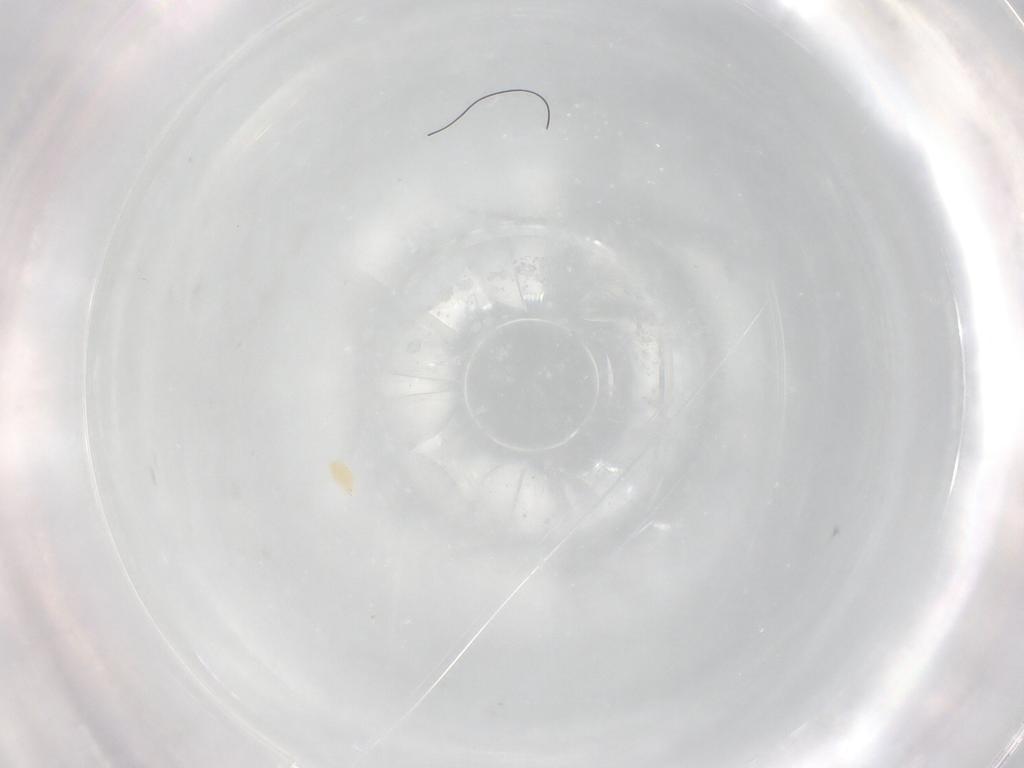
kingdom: Animalia
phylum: Arthropoda
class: Arachnida
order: Trombidiformes
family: Eupodidae
